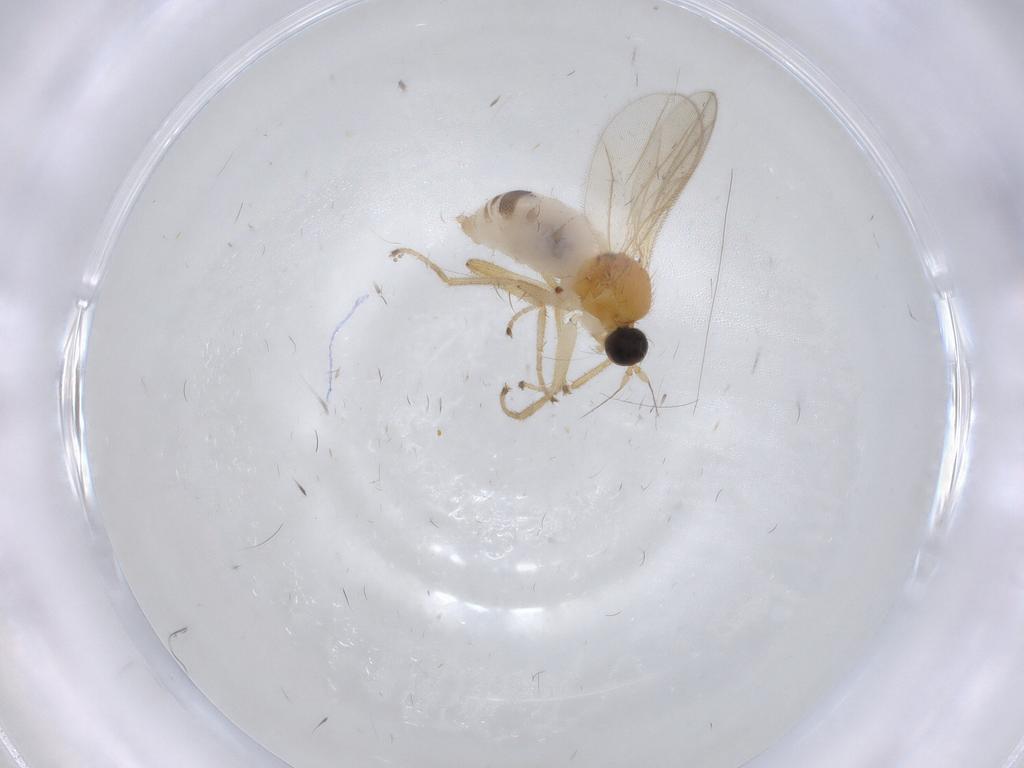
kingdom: Animalia
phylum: Arthropoda
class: Insecta
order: Diptera
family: Hybotidae
